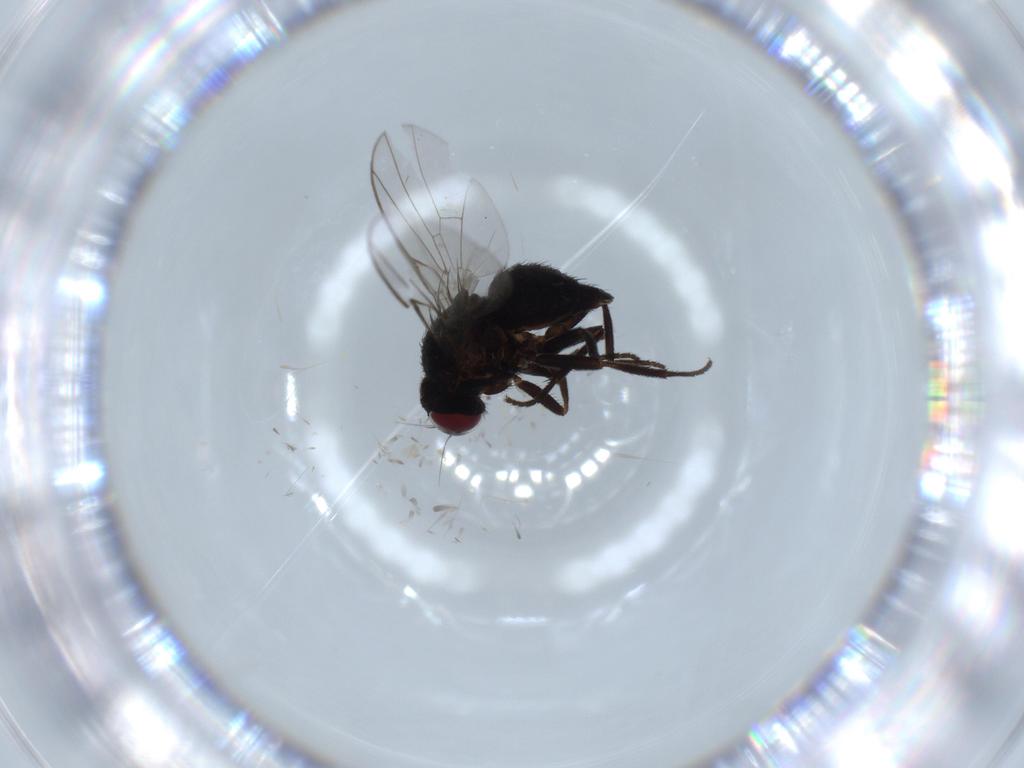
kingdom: Animalia
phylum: Arthropoda
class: Insecta
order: Diptera
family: Agromyzidae
